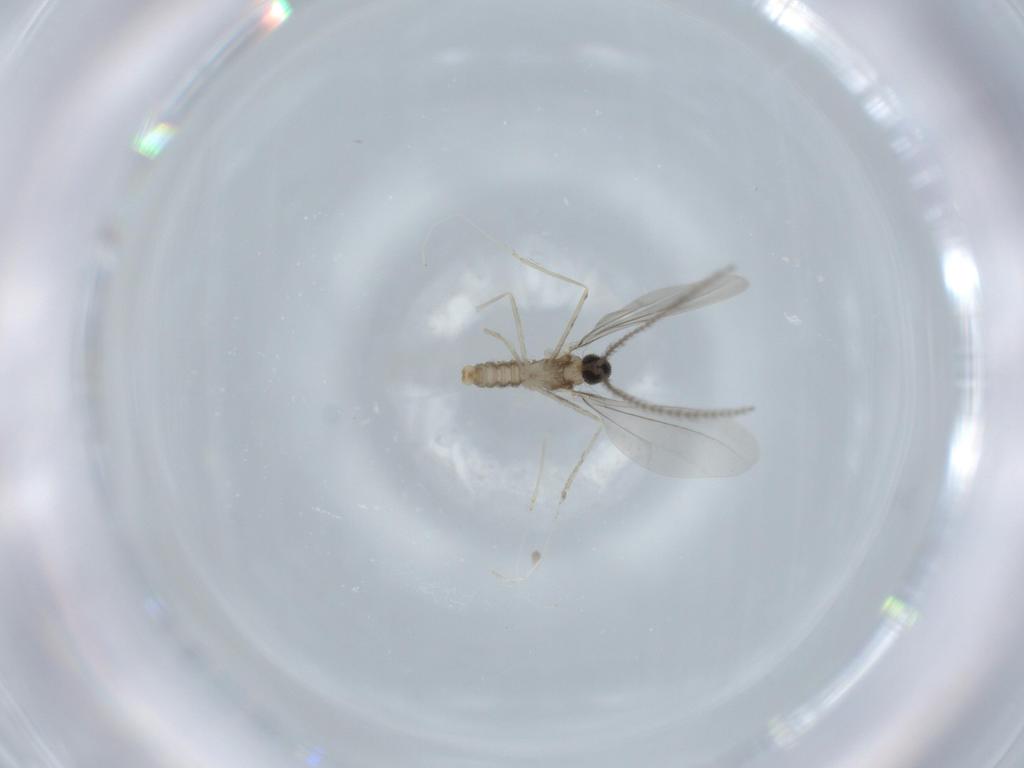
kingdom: Animalia
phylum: Arthropoda
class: Insecta
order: Diptera
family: Cecidomyiidae
